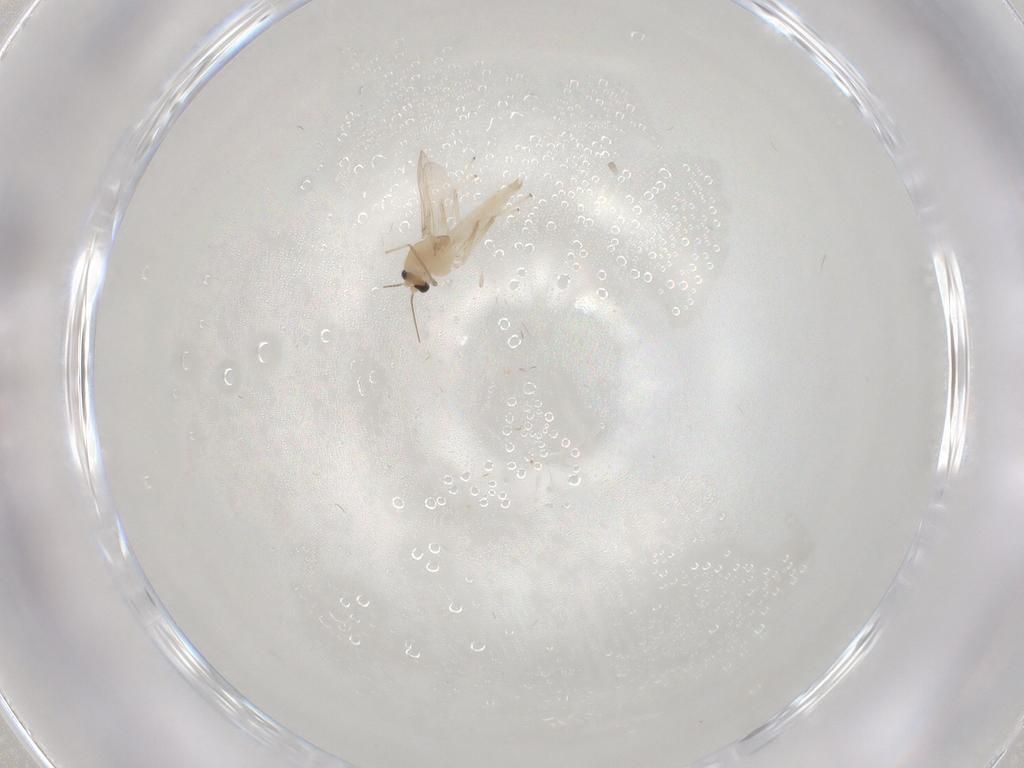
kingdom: Animalia
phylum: Arthropoda
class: Insecta
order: Diptera
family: Chironomidae
